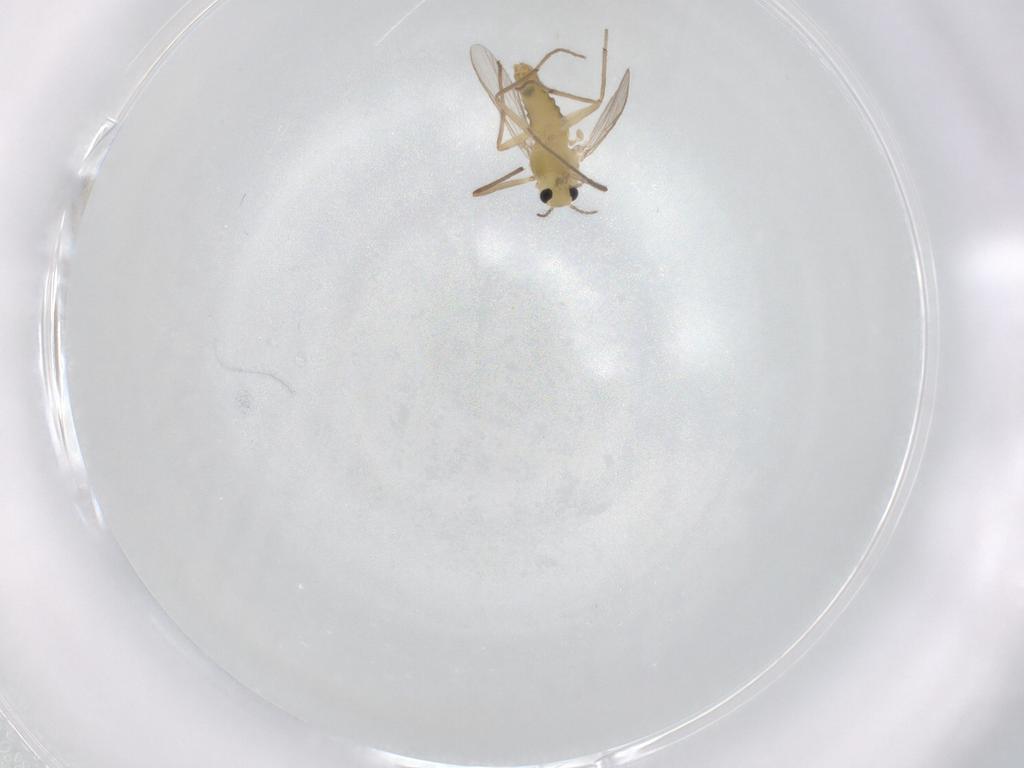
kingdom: Animalia
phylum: Arthropoda
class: Insecta
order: Diptera
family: Chironomidae
